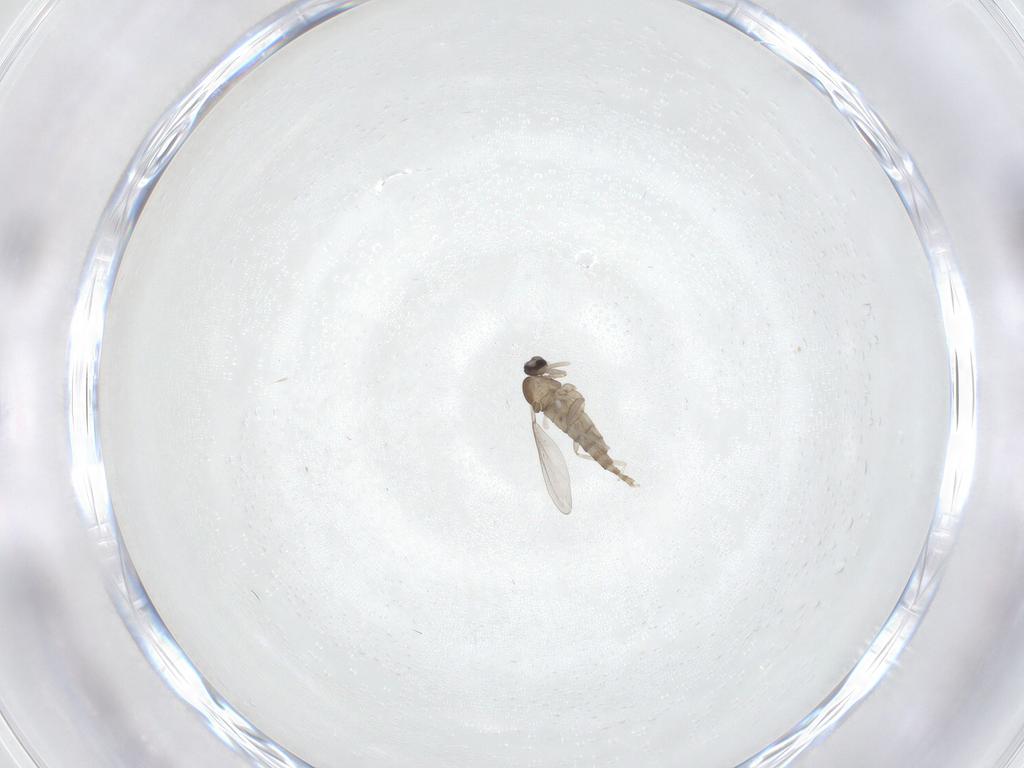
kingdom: Animalia
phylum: Arthropoda
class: Insecta
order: Diptera
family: Cecidomyiidae
